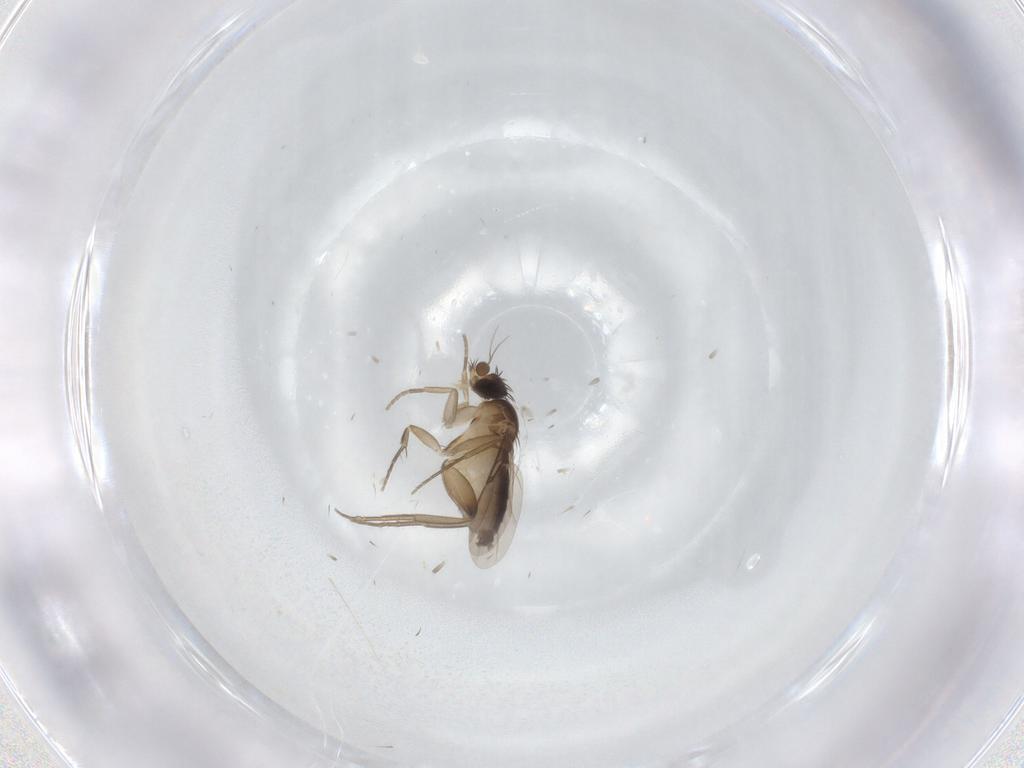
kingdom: Animalia
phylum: Arthropoda
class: Insecta
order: Diptera
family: Phoridae
